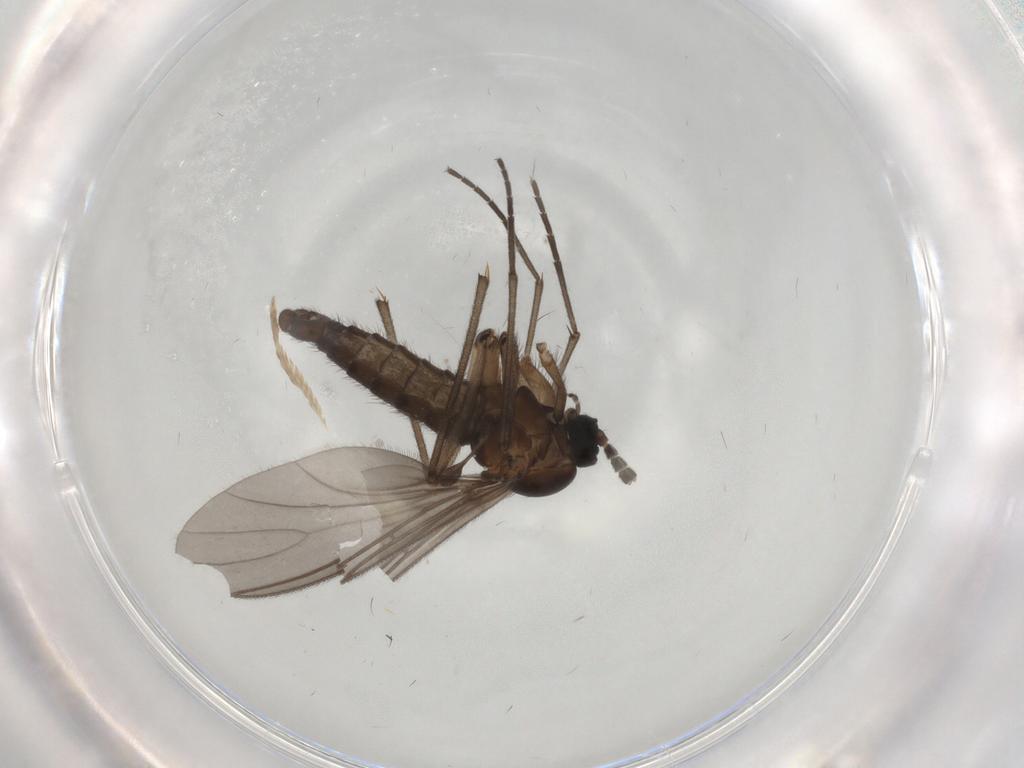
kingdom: Animalia
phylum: Arthropoda
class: Insecta
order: Diptera
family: Sciaridae
